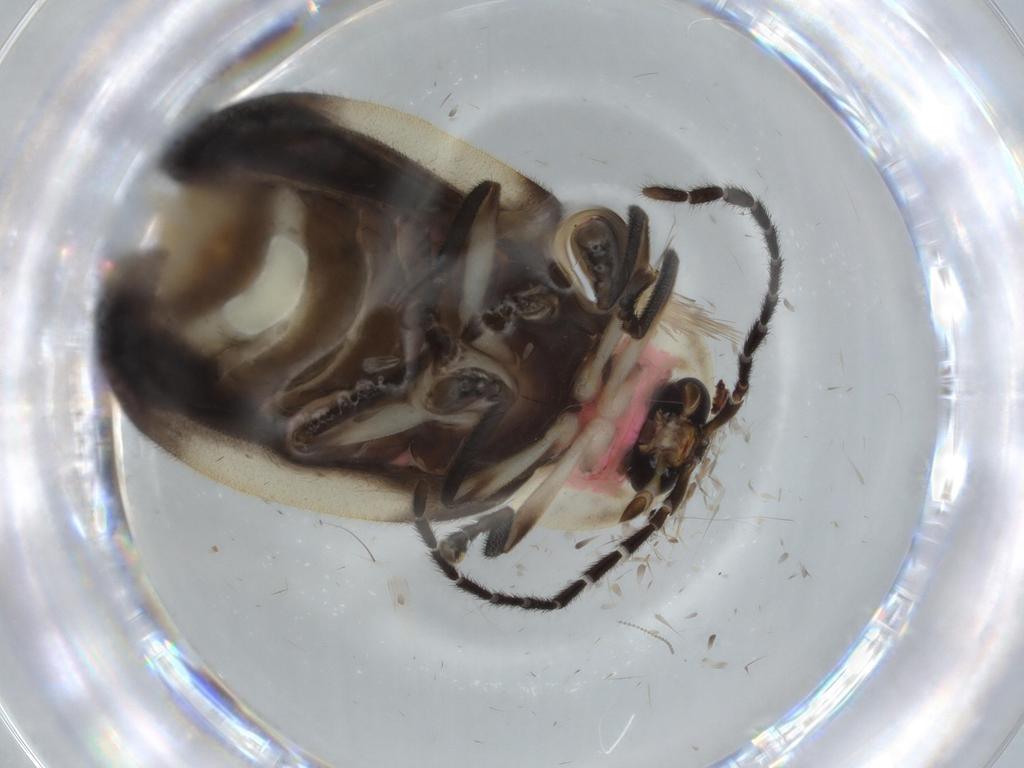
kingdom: Animalia
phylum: Arthropoda
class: Insecta
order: Coleoptera
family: Lampyridae
